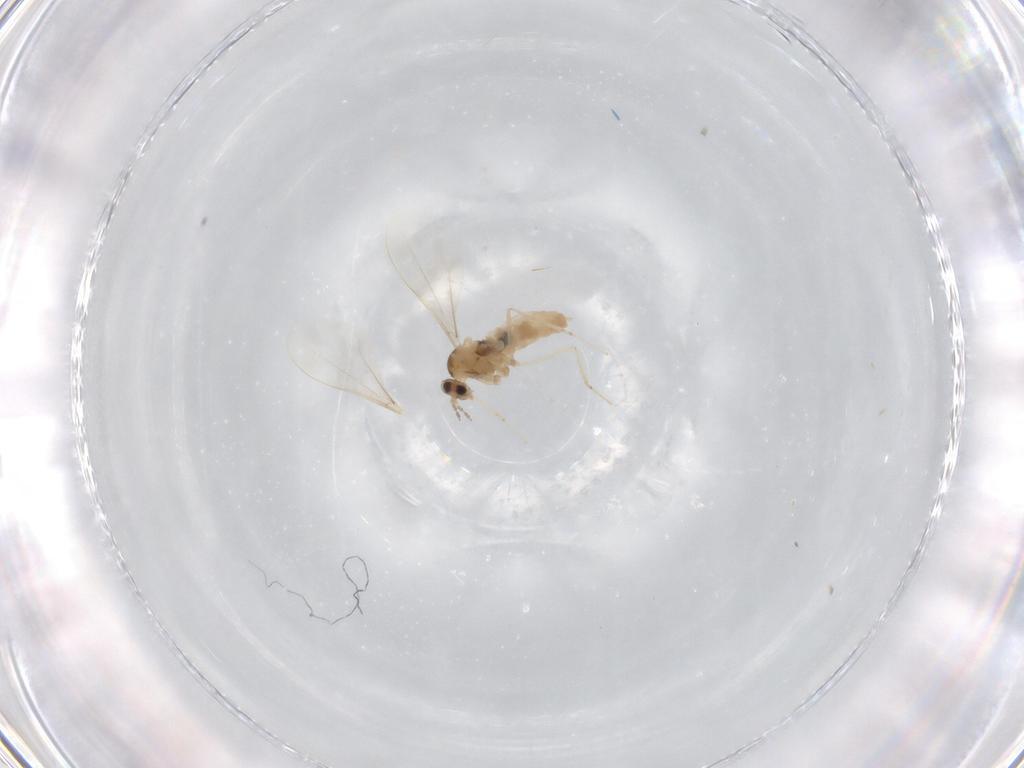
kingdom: Animalia
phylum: Arthropoda
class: Insecta
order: Diptera
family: Cecidomyiidae
